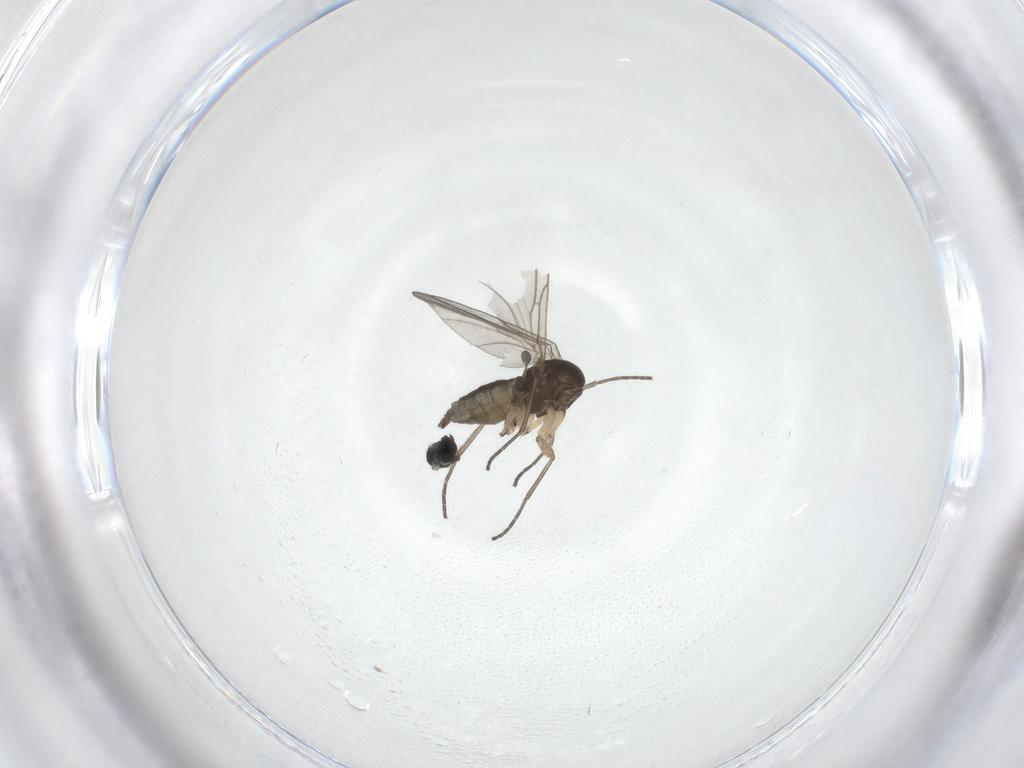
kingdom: Animalia
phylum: Arthropoda
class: Insecta
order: Diptera
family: Sciaridae
